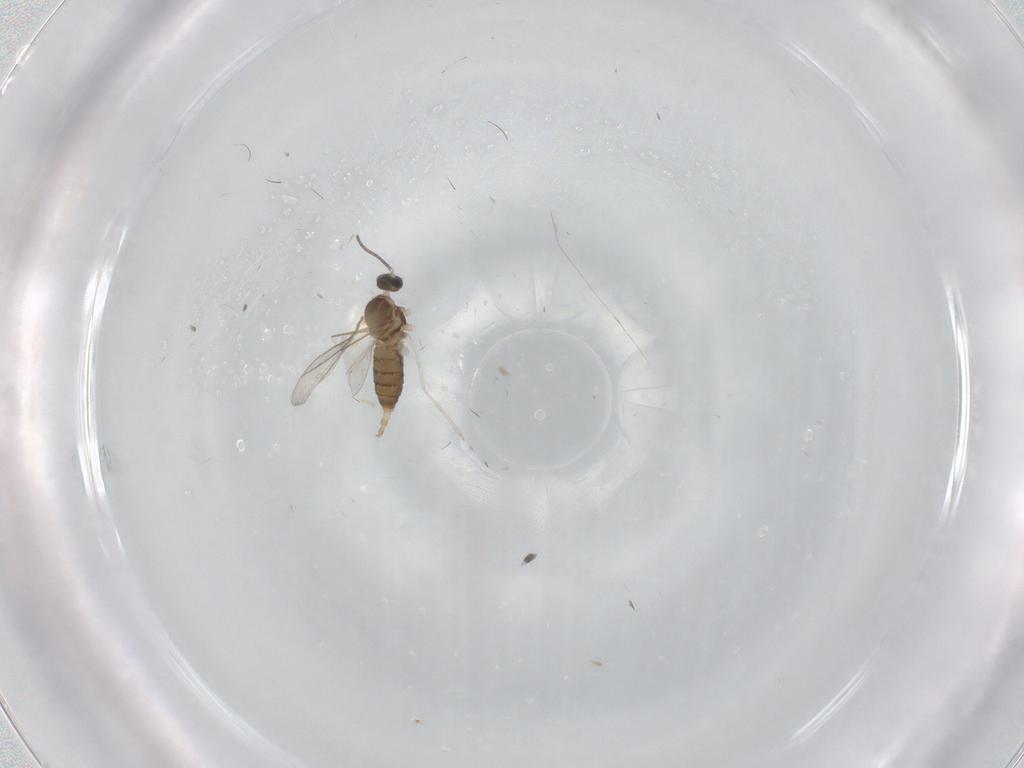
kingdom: Animalia
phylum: Arthropoda
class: Insecta
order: Diptera
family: Cecidomyiidae
